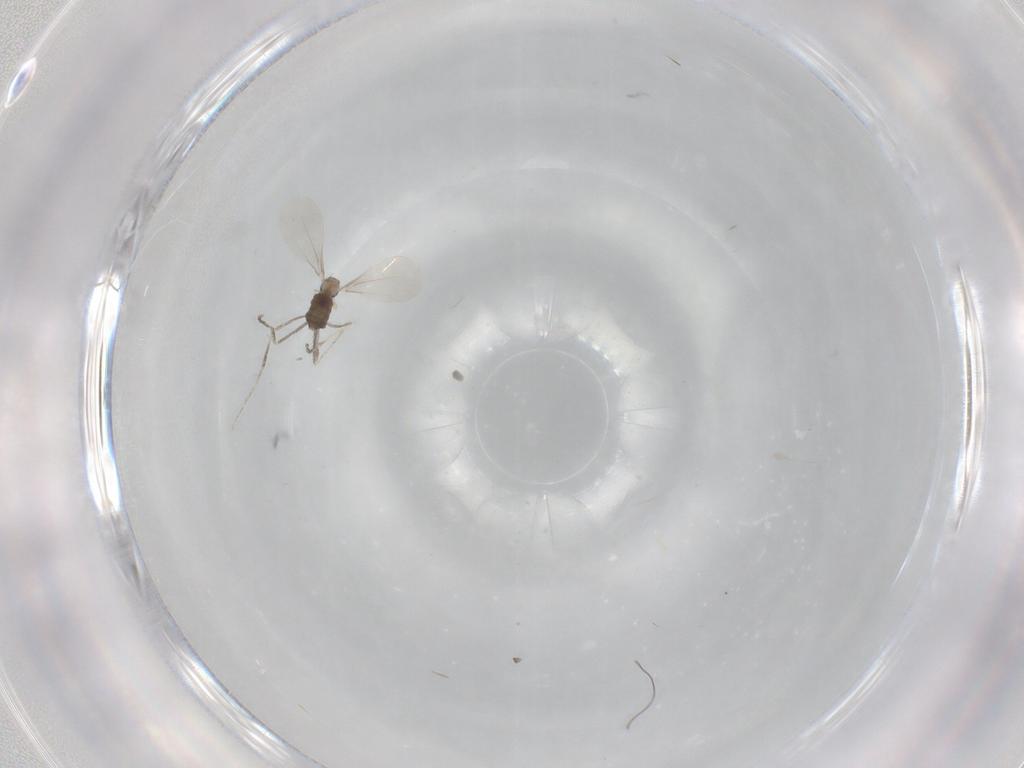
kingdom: Animalia
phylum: Arthropoda
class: Insecta
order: Diptera
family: Cecidomyiidae
